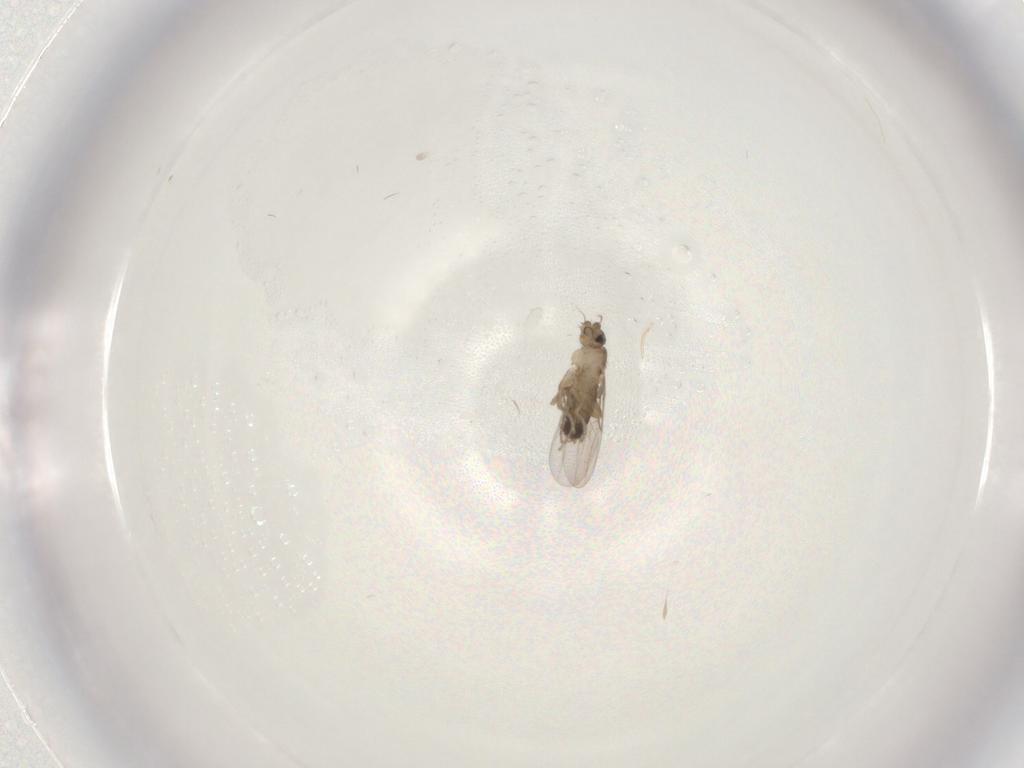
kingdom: Animalia
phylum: Arthropoda
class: Insecta
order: Diptera
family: Phoridae
